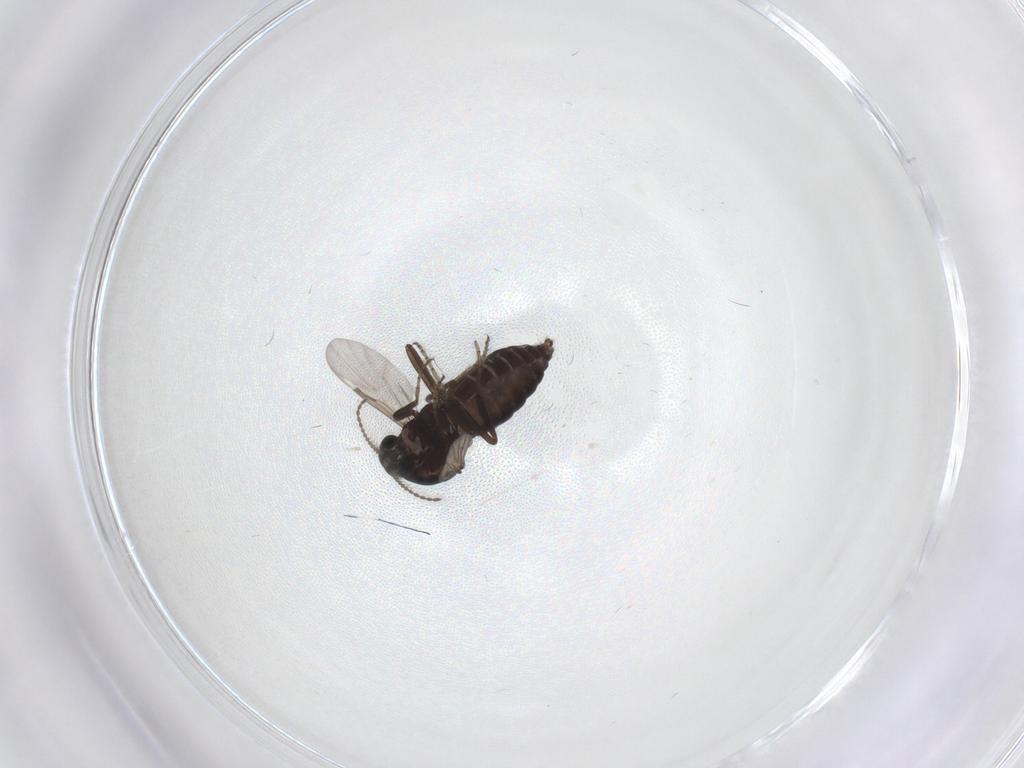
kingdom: Animalia
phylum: Arthropoda
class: Insecta
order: Diptera
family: Ceratopogonidae
